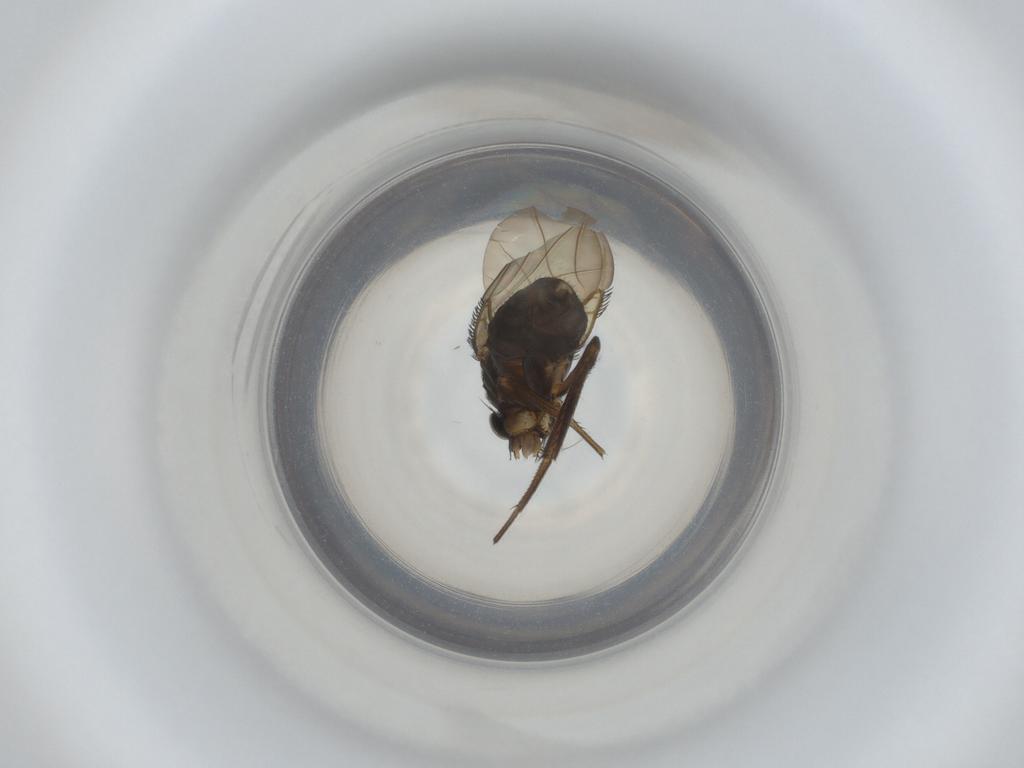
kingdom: Animalia
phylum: Arthropoda
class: Insecta
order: Diptera
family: Phoridae
